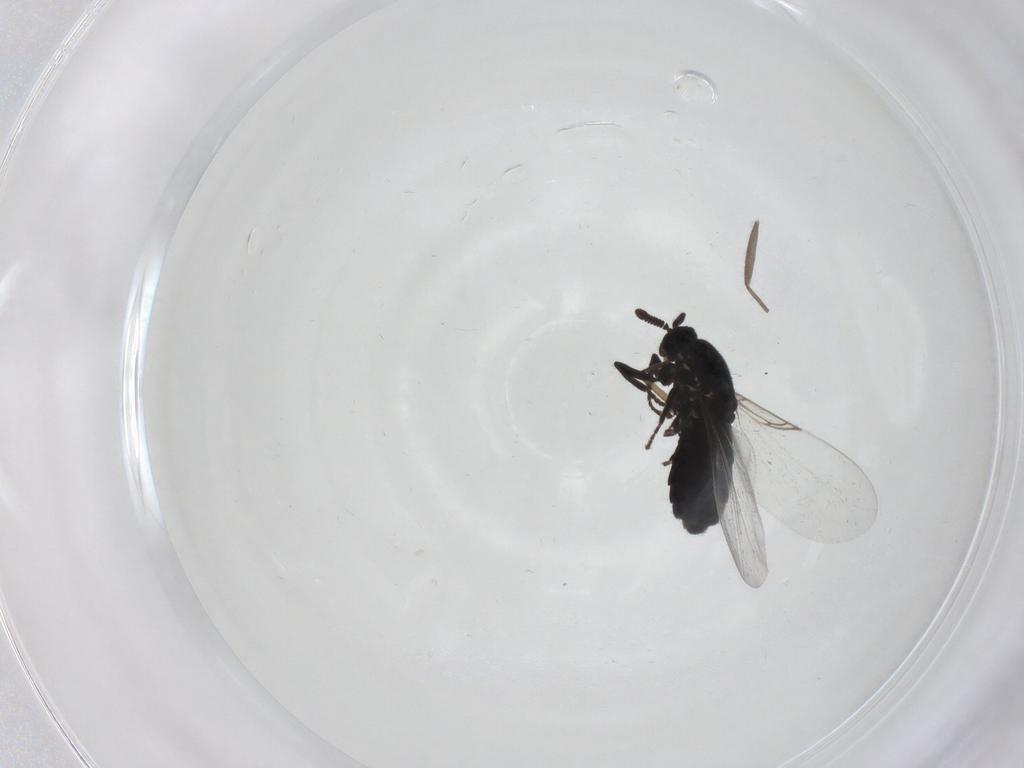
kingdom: Animalia
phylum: Arthropoda
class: Insecta
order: Diptera
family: Scatopsidae
